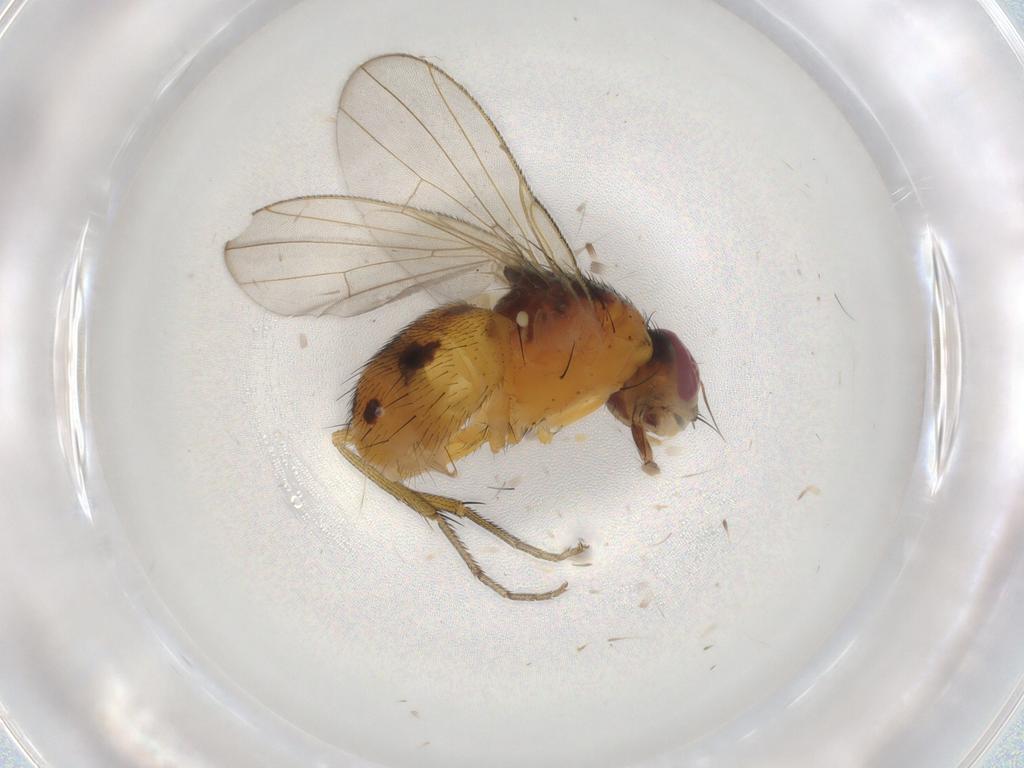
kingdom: Animalia
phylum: Arthropoda
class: Insecta
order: Diptera
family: Muscidae
